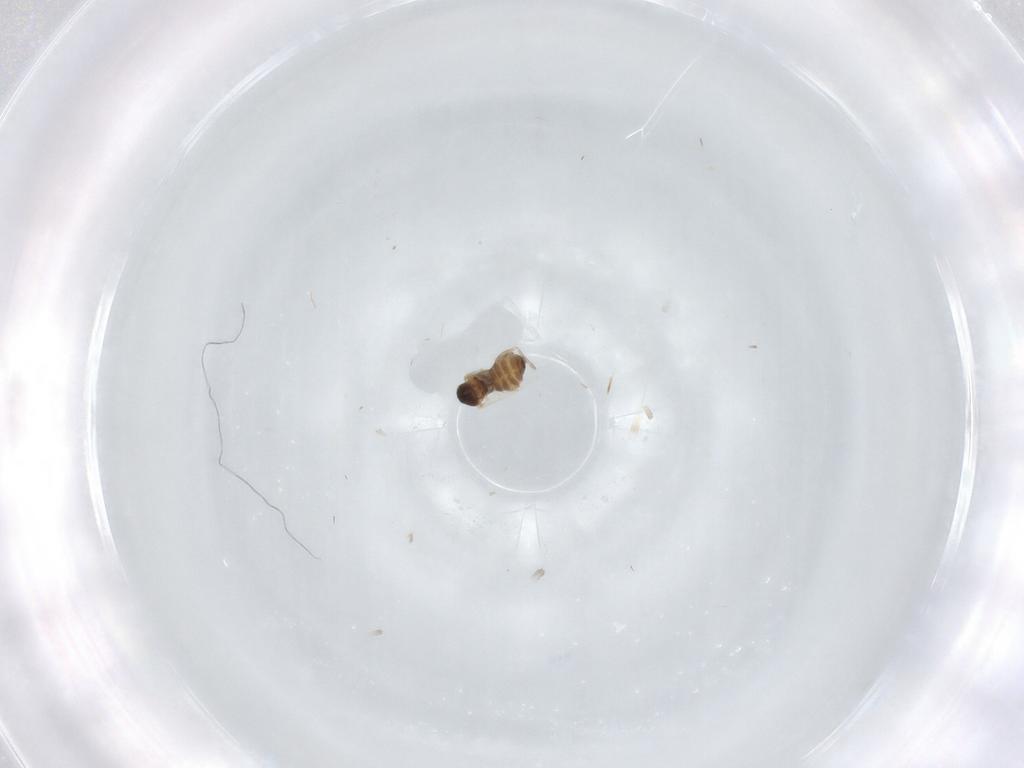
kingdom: Animalia
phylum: Arthropoda
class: Insecta
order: Diptera
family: Cecidomyiidae
